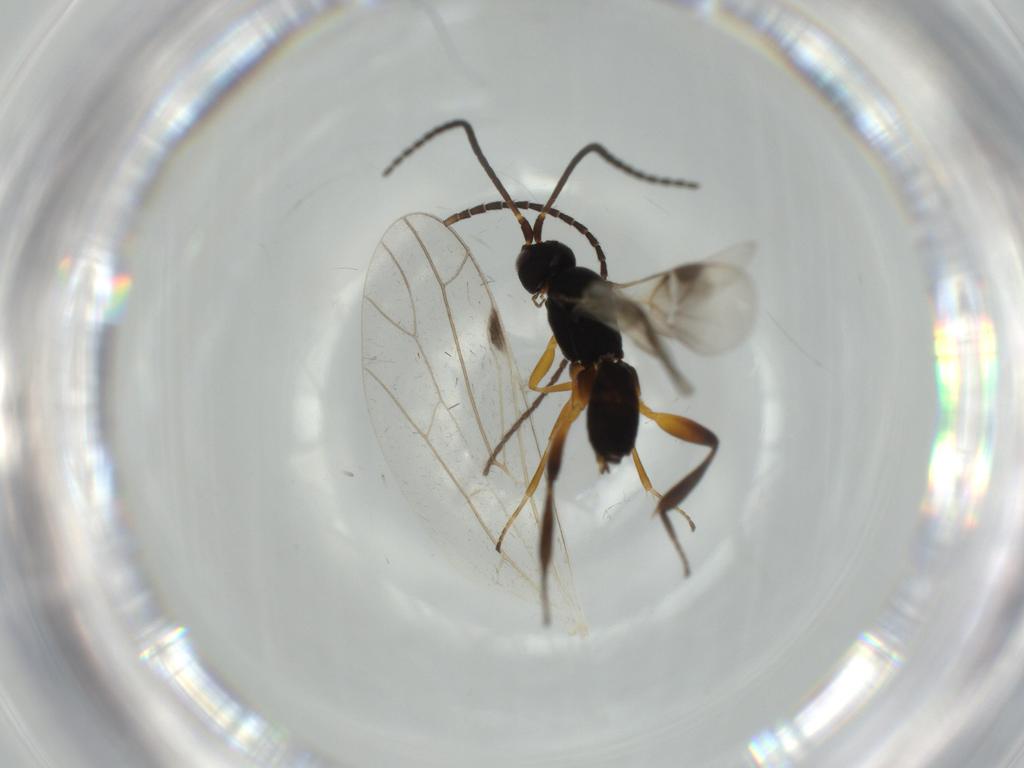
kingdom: Animalia
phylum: Arthropoda
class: Insecta
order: Hymenoptera
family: Braconidae
